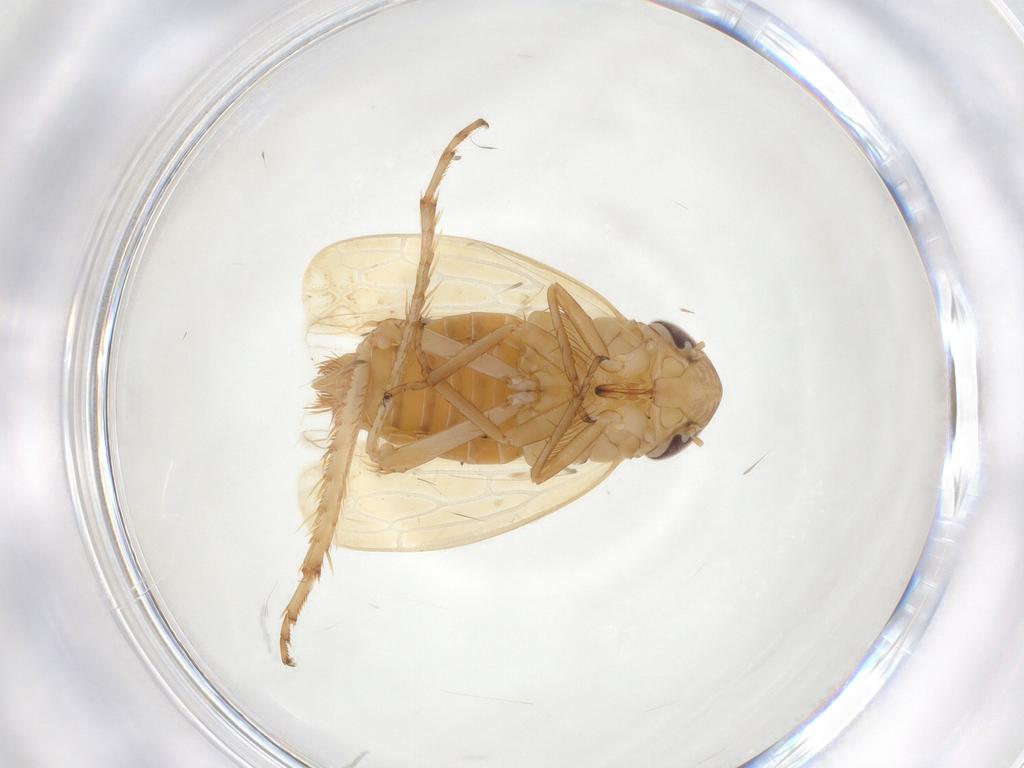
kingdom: Animalia
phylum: Arthropoda
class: Insecta
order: Hemiptera
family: Cicadellidae
